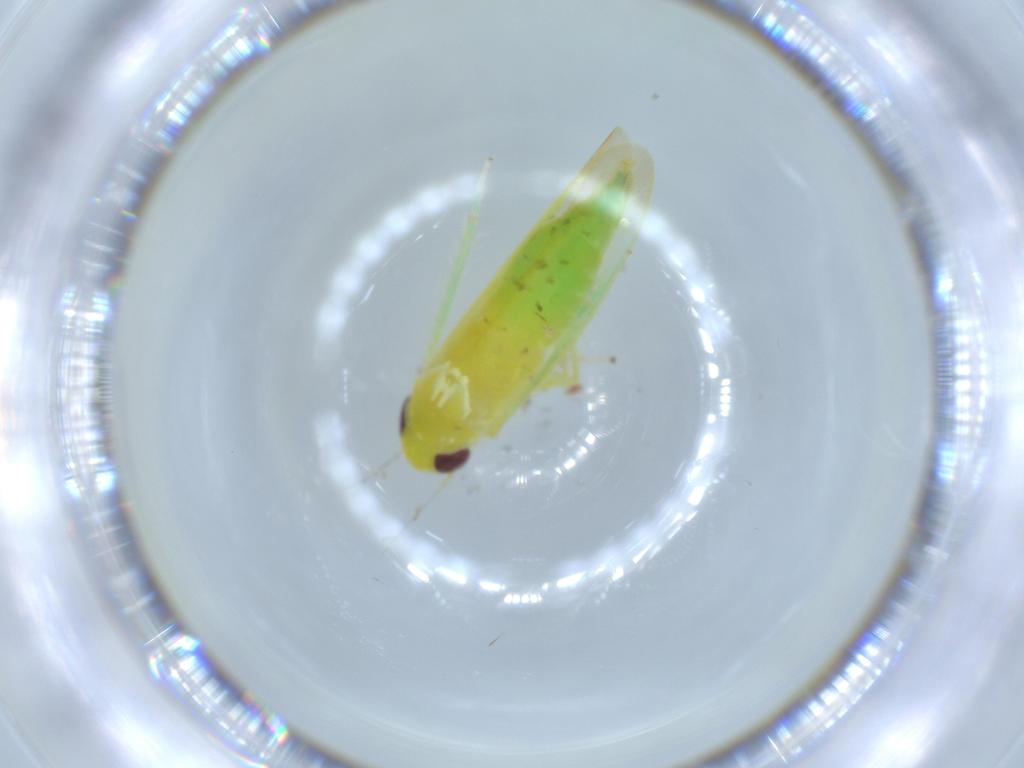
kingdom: Animalia
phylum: Arthropoda
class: Insecta
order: Hemiptera
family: Cicadellidae
